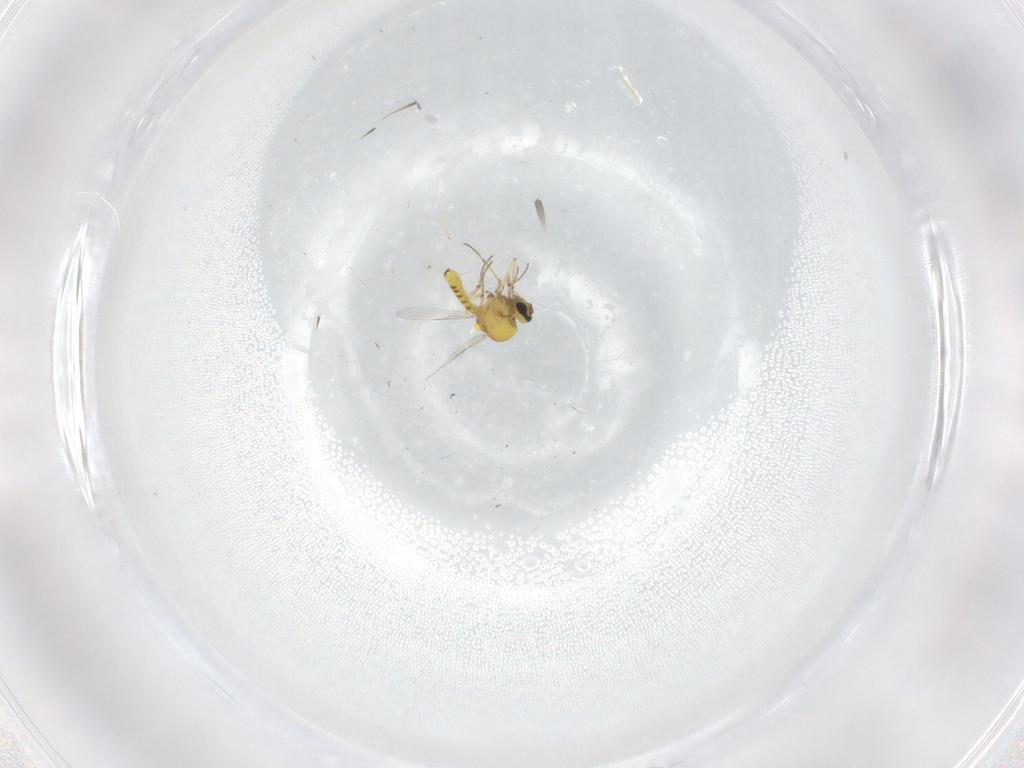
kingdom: Animalia
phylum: Arthropoda
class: Insecta
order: Diptera
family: Ceratopogonidae
